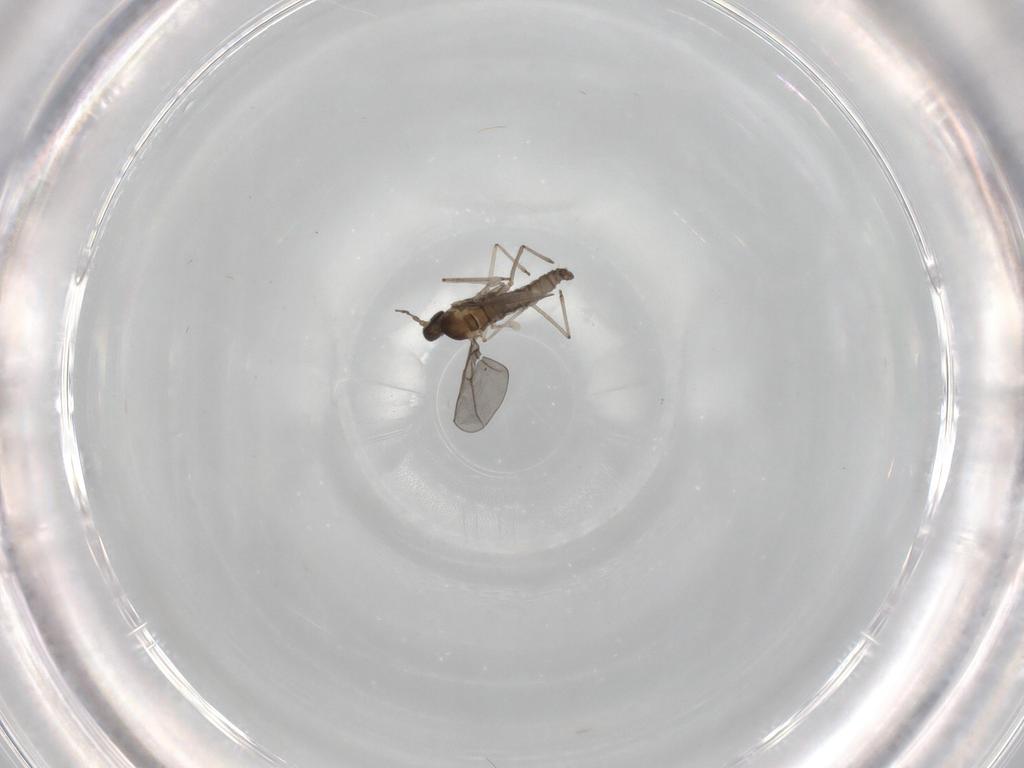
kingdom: Animalia
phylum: Arthropoda
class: Insecta
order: Diptera
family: Cecidomyiidae
